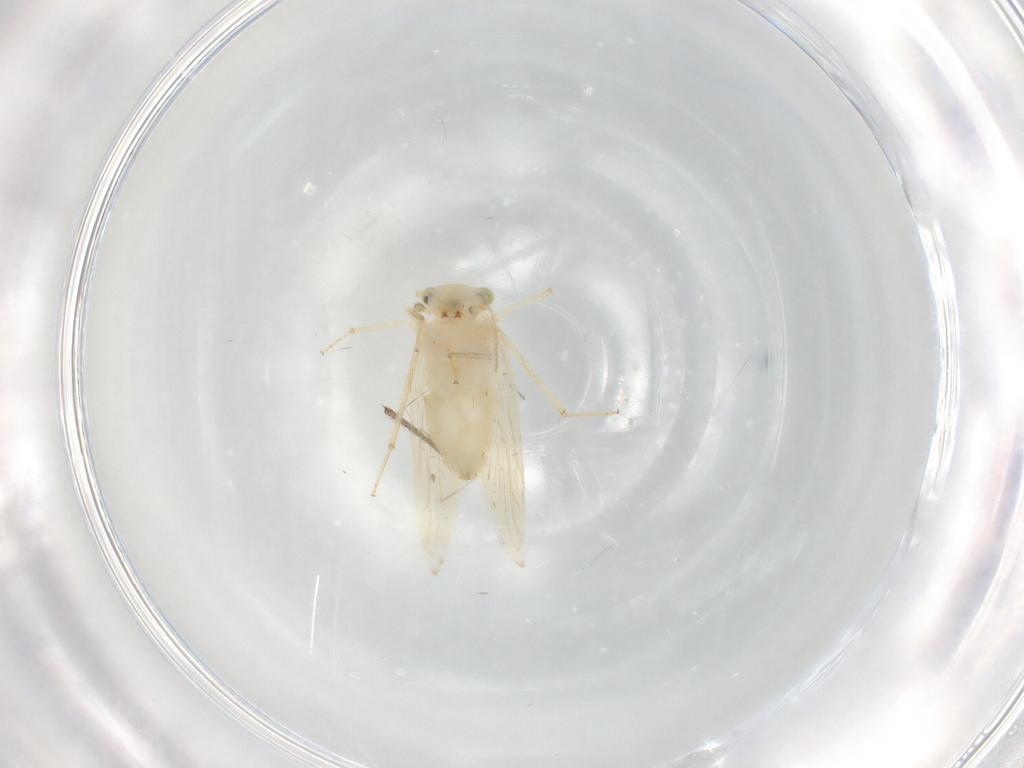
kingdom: Animalia
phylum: Arthropoda
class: Insecta
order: Psocodea
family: Lepidopsocidae
